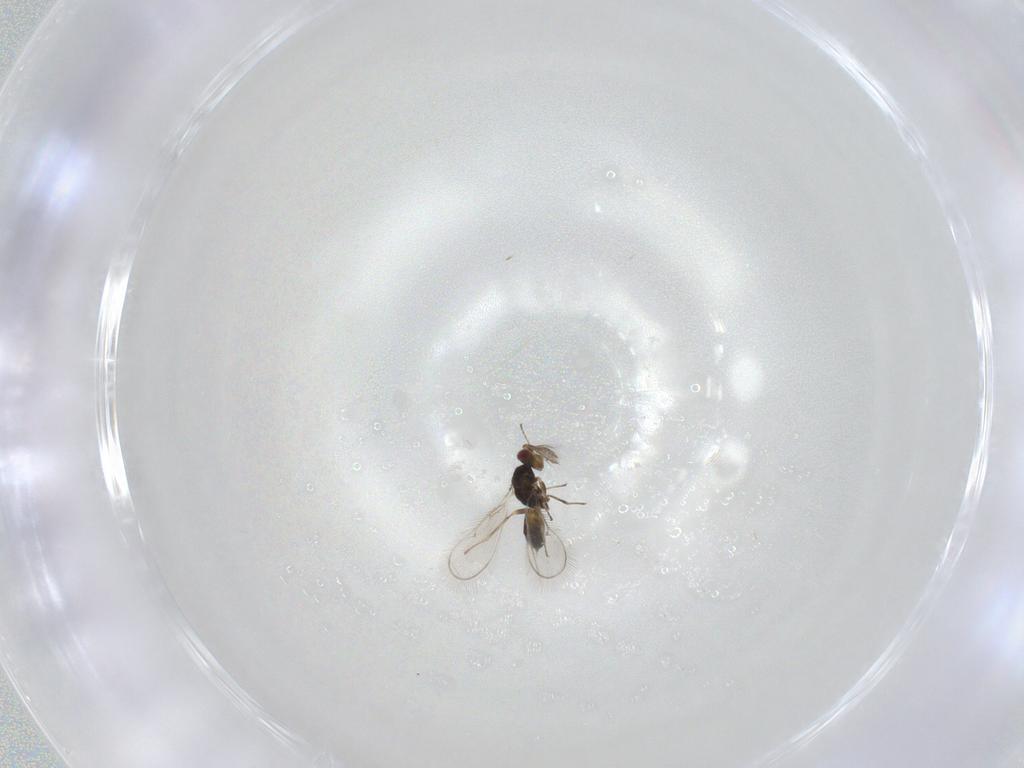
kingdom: Animalia
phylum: Arthropoda
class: Insecta
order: Hymenoptera
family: Eulophidae
